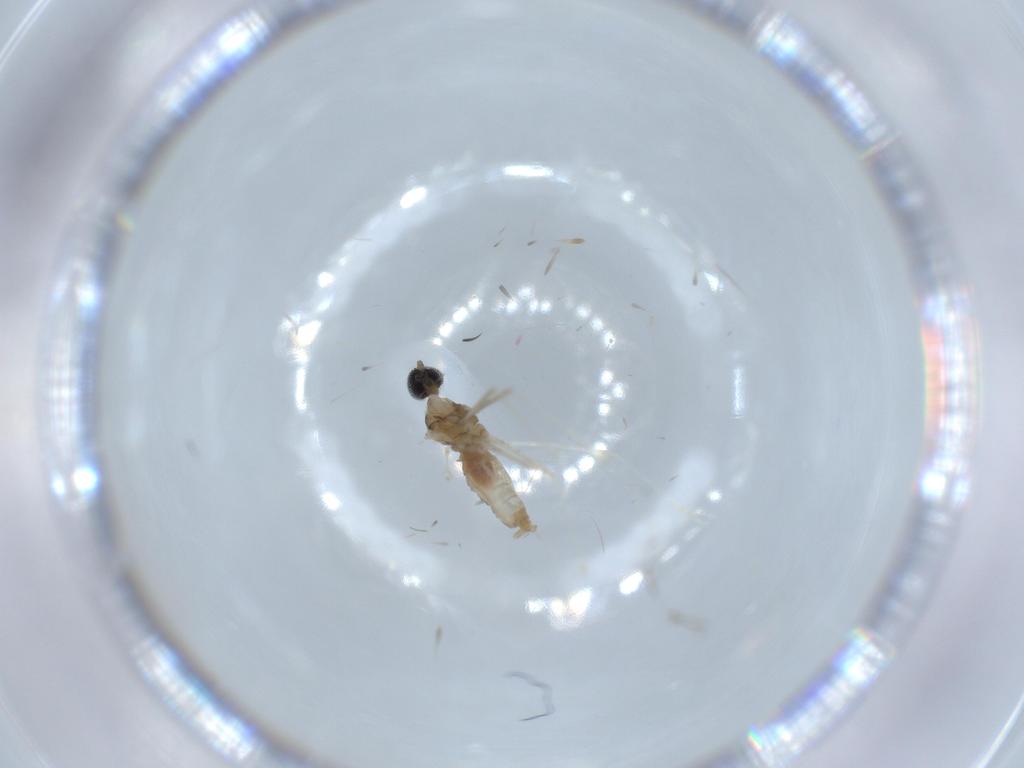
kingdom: Animalia
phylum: Arthropoda
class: Insecta
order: Diptera
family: Cecidomyiidae
